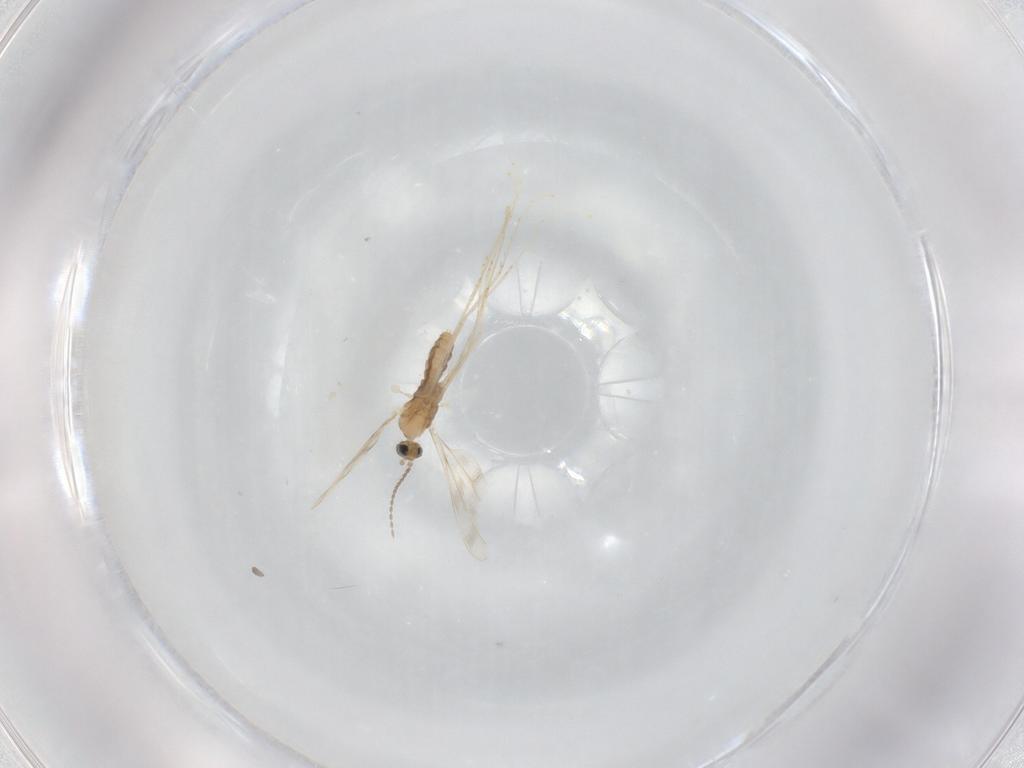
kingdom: Animalia
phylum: Arthropoda
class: Insecta
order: Diptera
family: Cecidomyiidae
